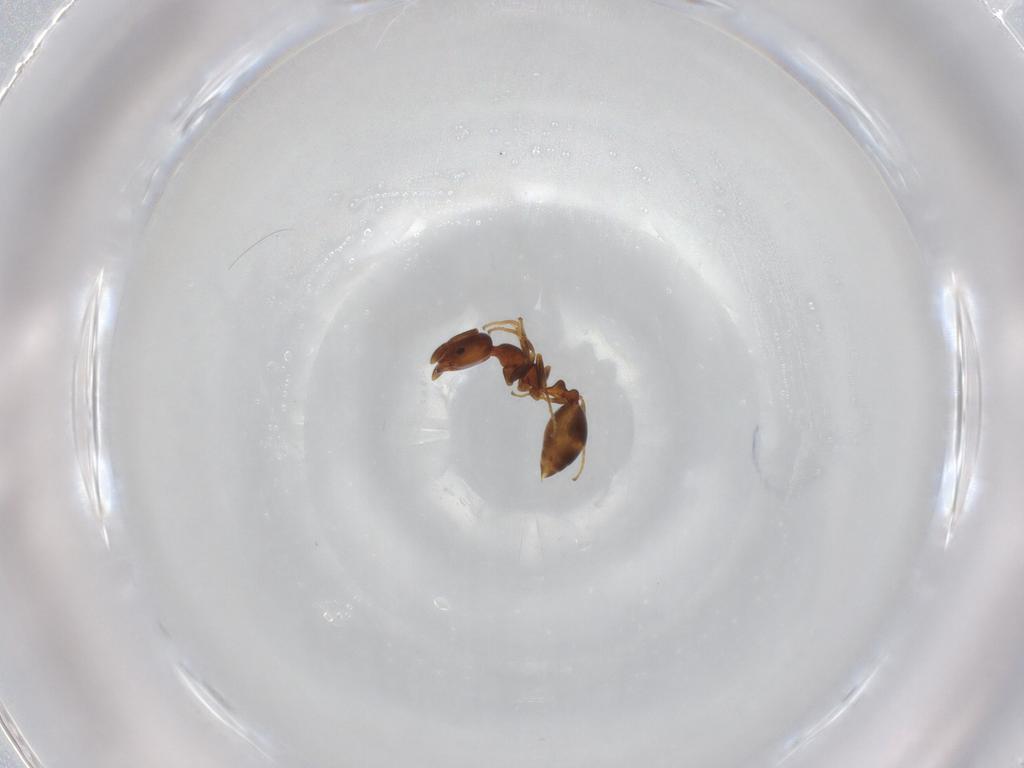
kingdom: Animalia
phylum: Arthropoda
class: Insecta
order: Hymenoptera
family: Formicidae
